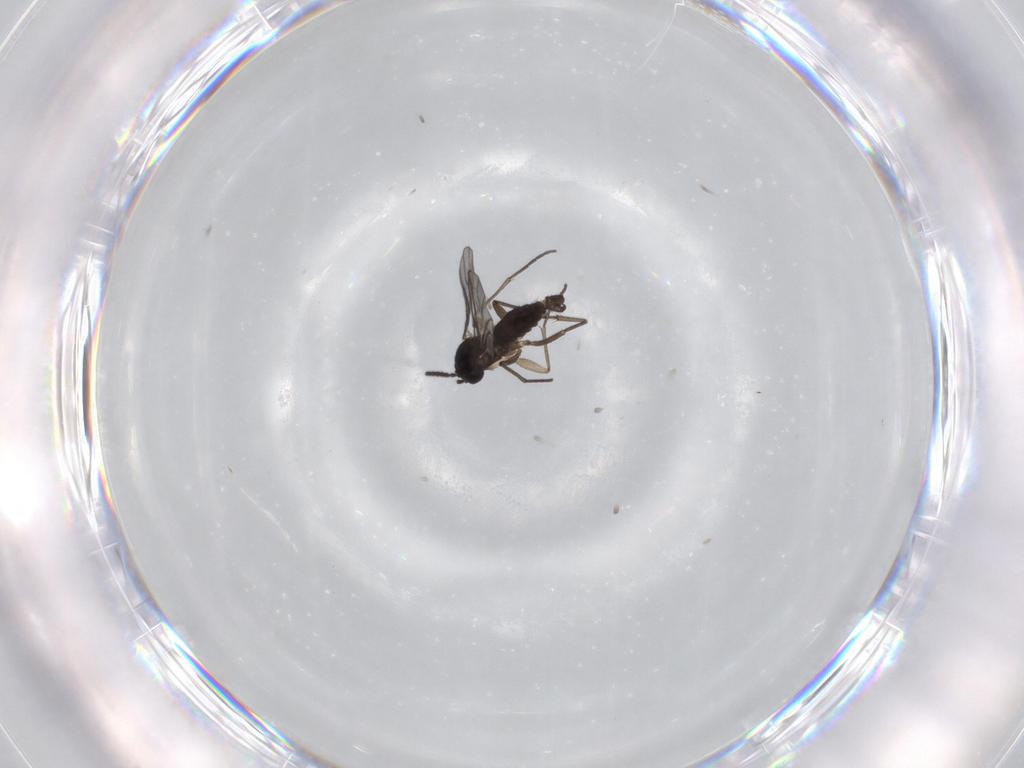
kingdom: Animalia
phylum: Arthropoda
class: Insecta
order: Diptera
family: Sciaridae
